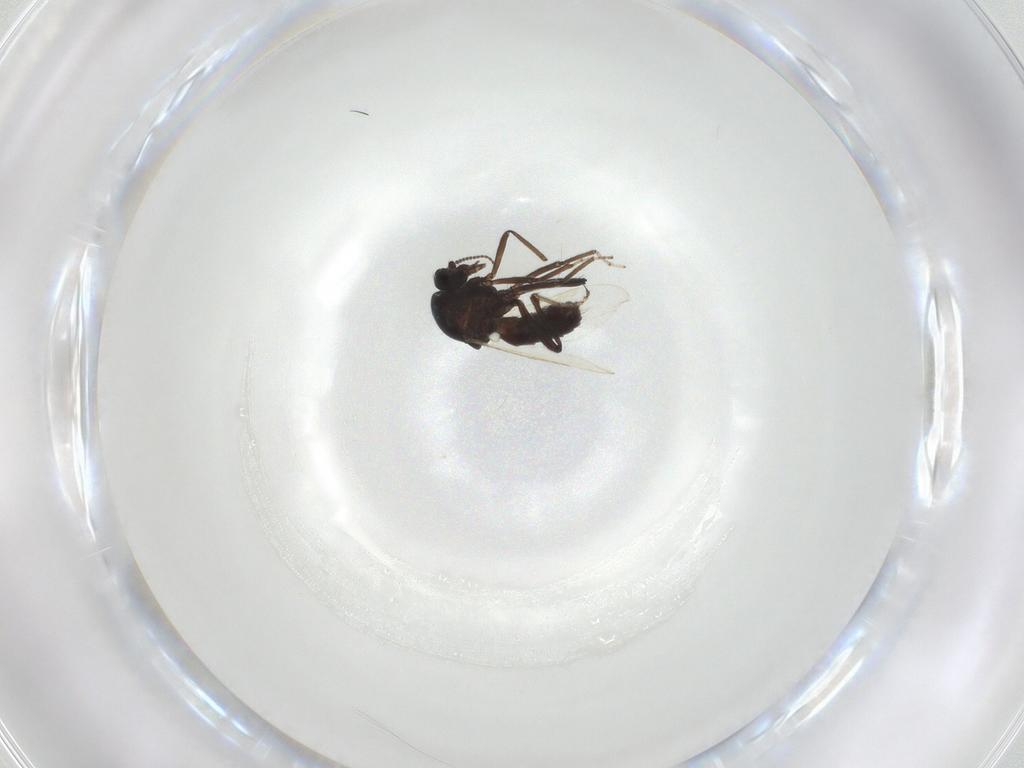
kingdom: Animalia
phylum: Arthropoda
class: Insecta
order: Diptera
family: Ceratopogonidae
